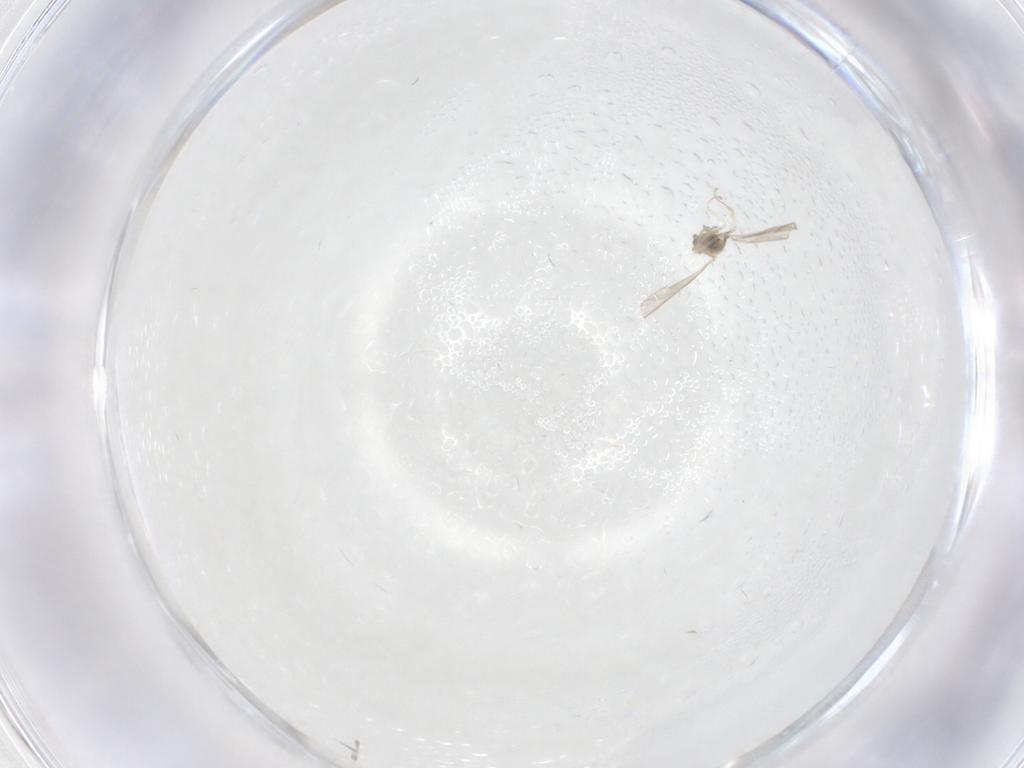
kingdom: Animalia
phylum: Arthropoda
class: Insecta
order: Diptera
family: Cecidomyiidae
